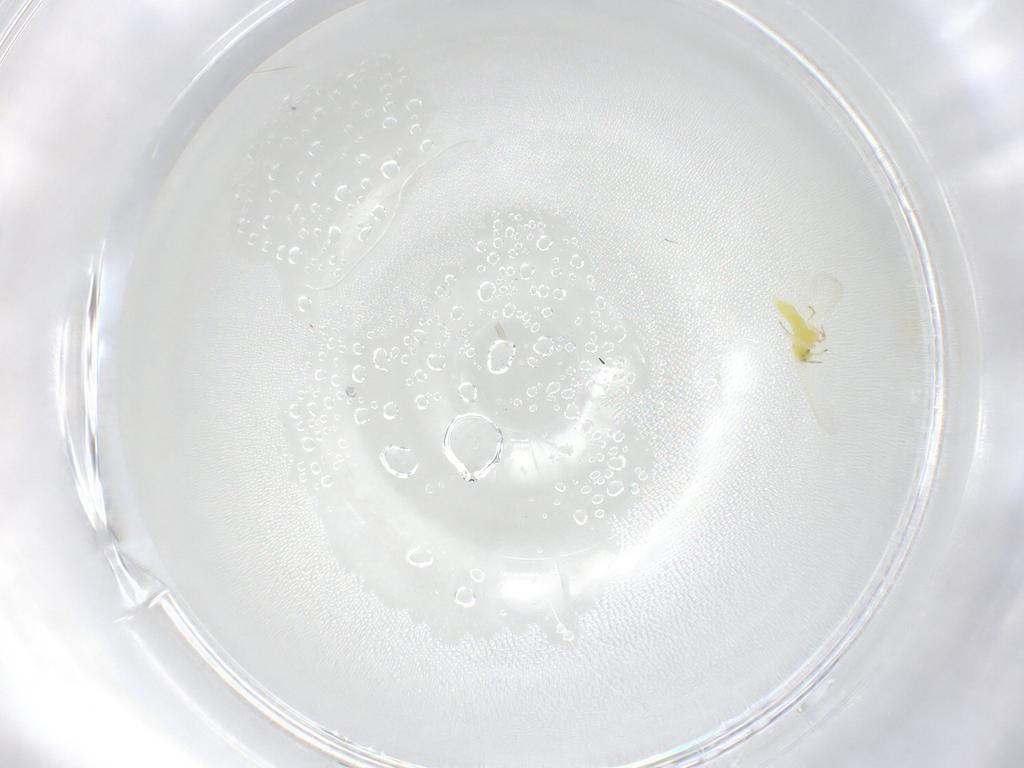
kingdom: Animalia
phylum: Arthropoda
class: Insecta
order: Hemiptera
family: Aleyrodidae
